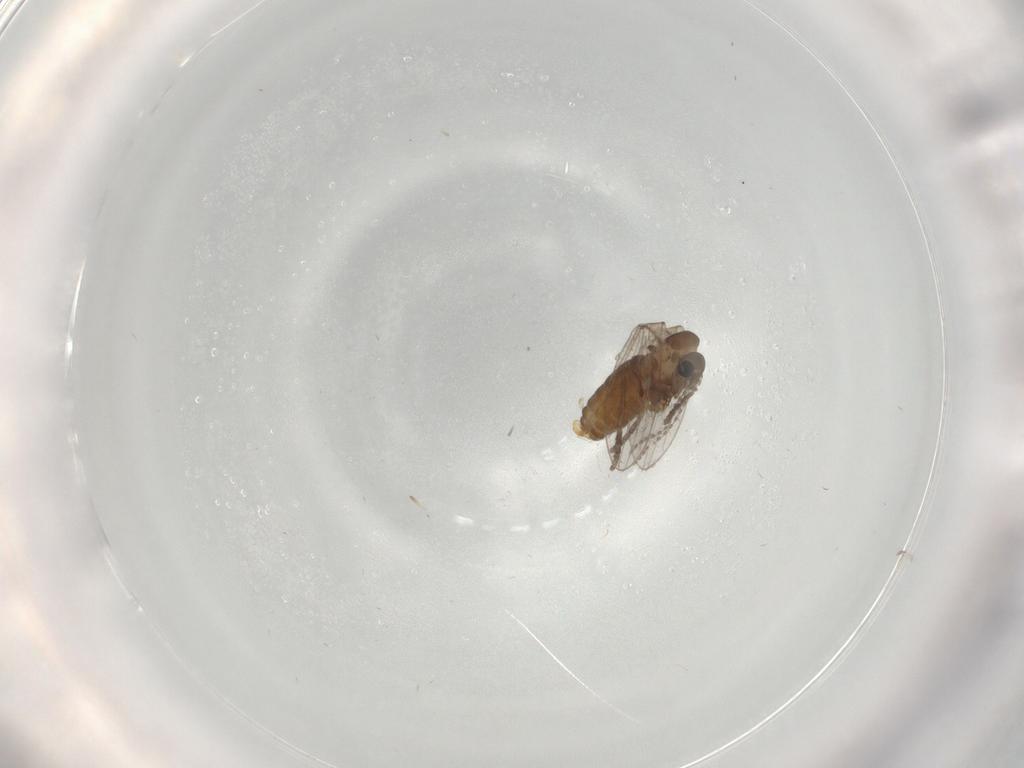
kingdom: Animalia
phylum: Arthropoda
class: Insecta
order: Diptera
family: Muscidae
